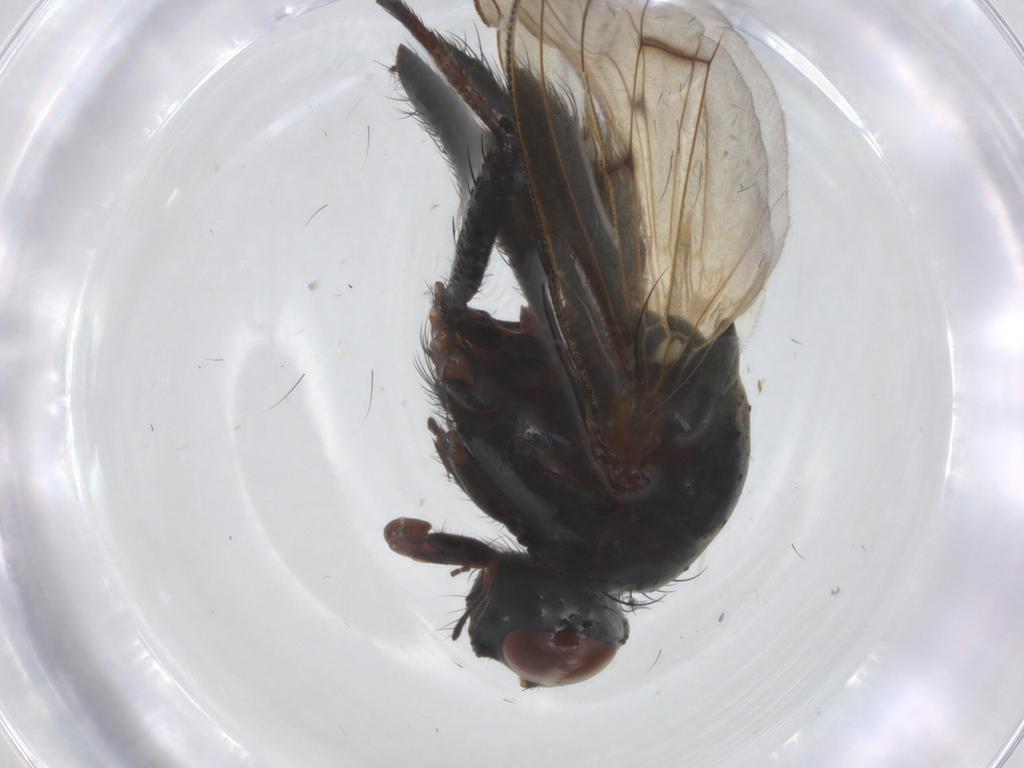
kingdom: Animalia
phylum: Arthropoda
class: Insecta
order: Diptera
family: Anthomyiidae
